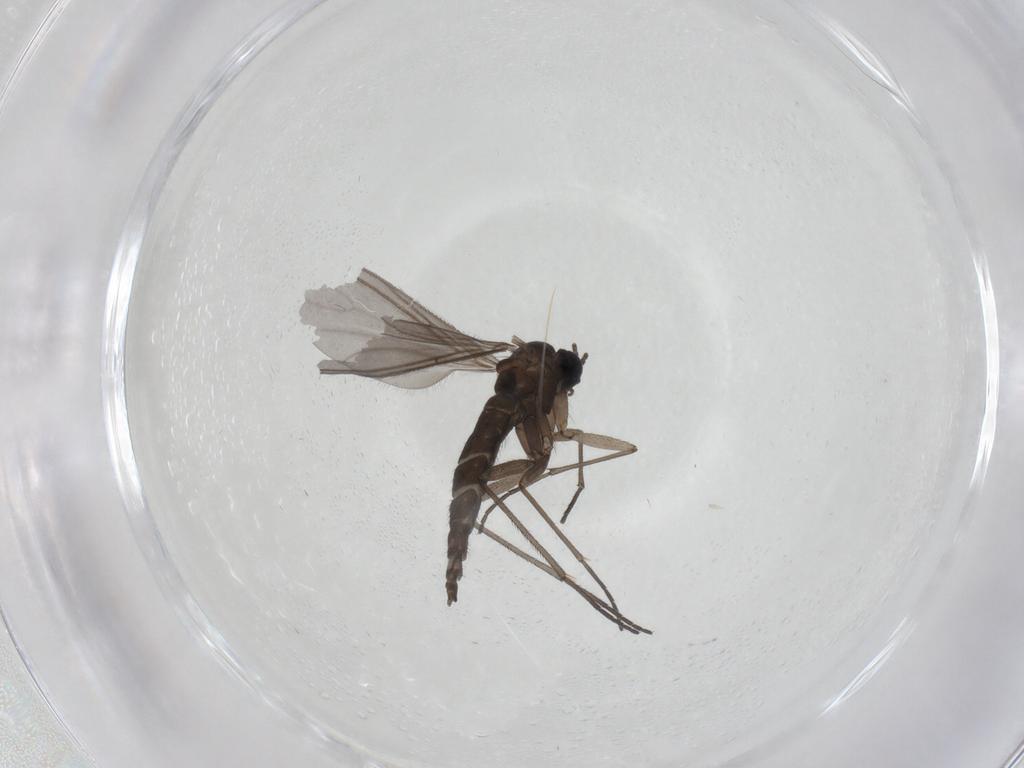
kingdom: Animalia
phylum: Arthropoda
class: Insecta
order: Diptera
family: Sciaridae
